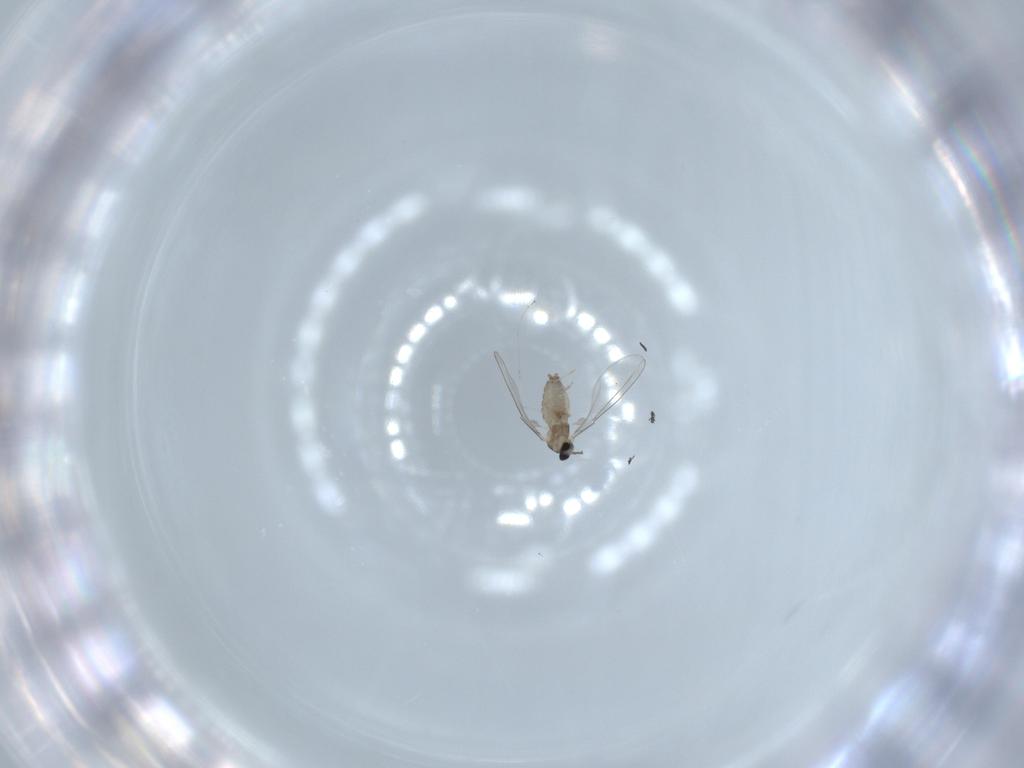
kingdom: Animalia
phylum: Arthropoda
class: Insecta
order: Diptera
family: Cecidomyiidae
